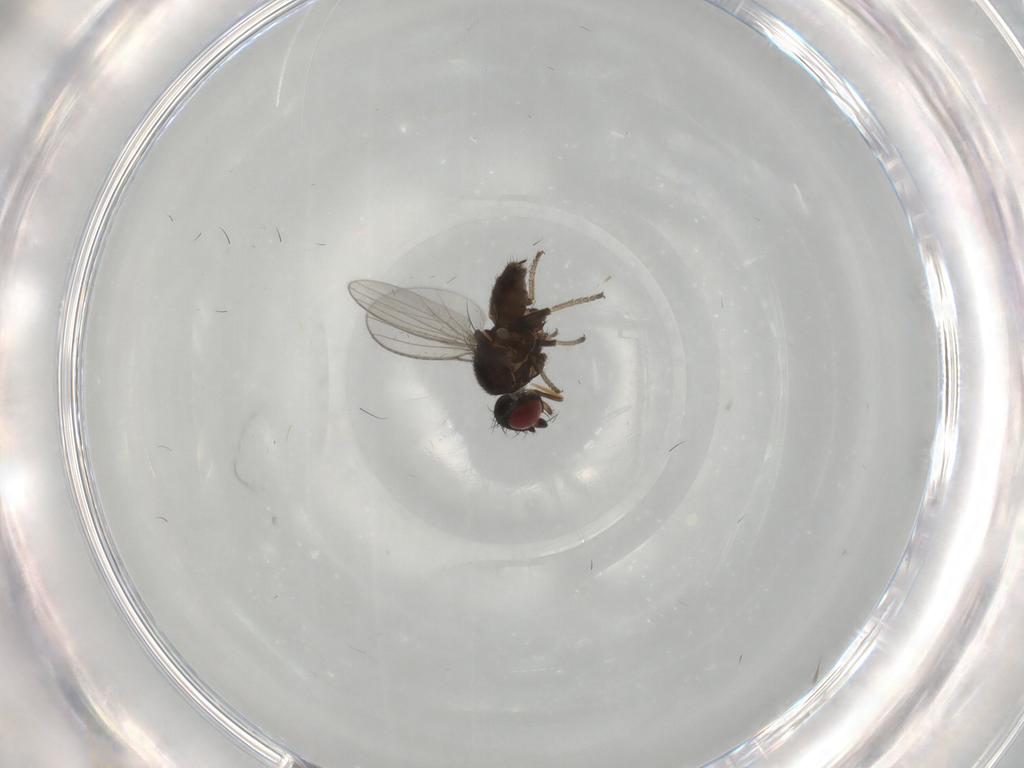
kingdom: Animalia
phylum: Arthropoda
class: Insecta
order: Diptera
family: Milichiidae
